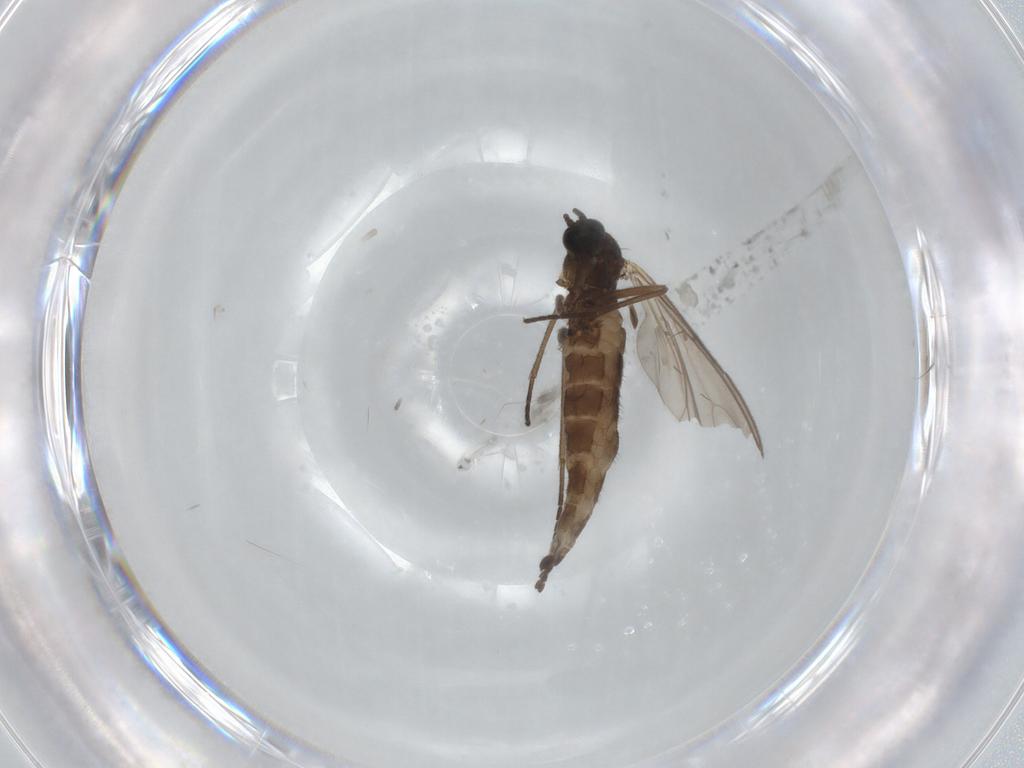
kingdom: Animalia
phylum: Arthropoda
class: Insecta
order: Diptera
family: Sciaridae
